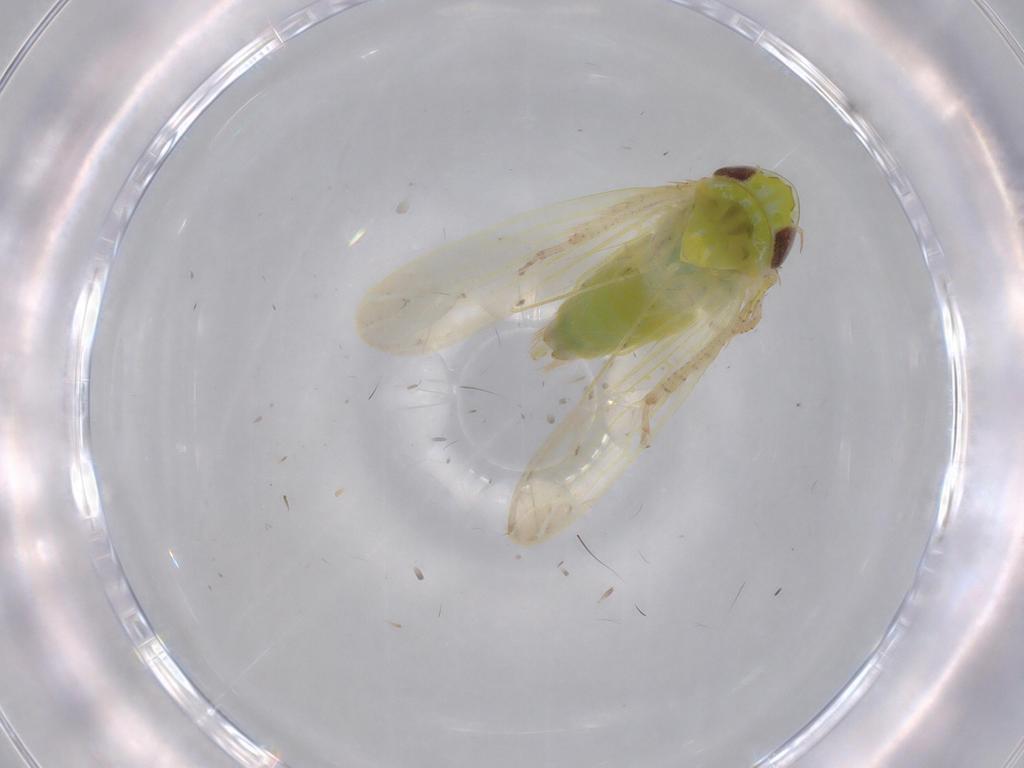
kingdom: Animalia
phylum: Arthropoda
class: Insecta
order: Hemiptera
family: Cicadellidae
